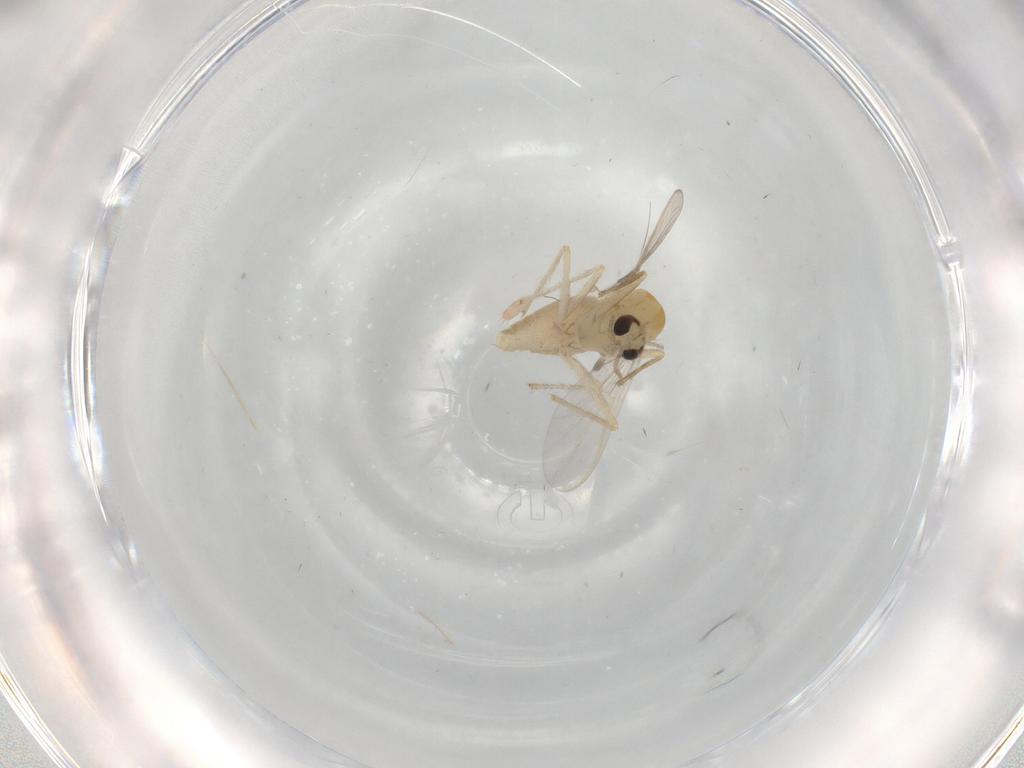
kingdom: Animalia
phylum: Arthropoda
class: Insecta
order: Diptera
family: Chironomidae
